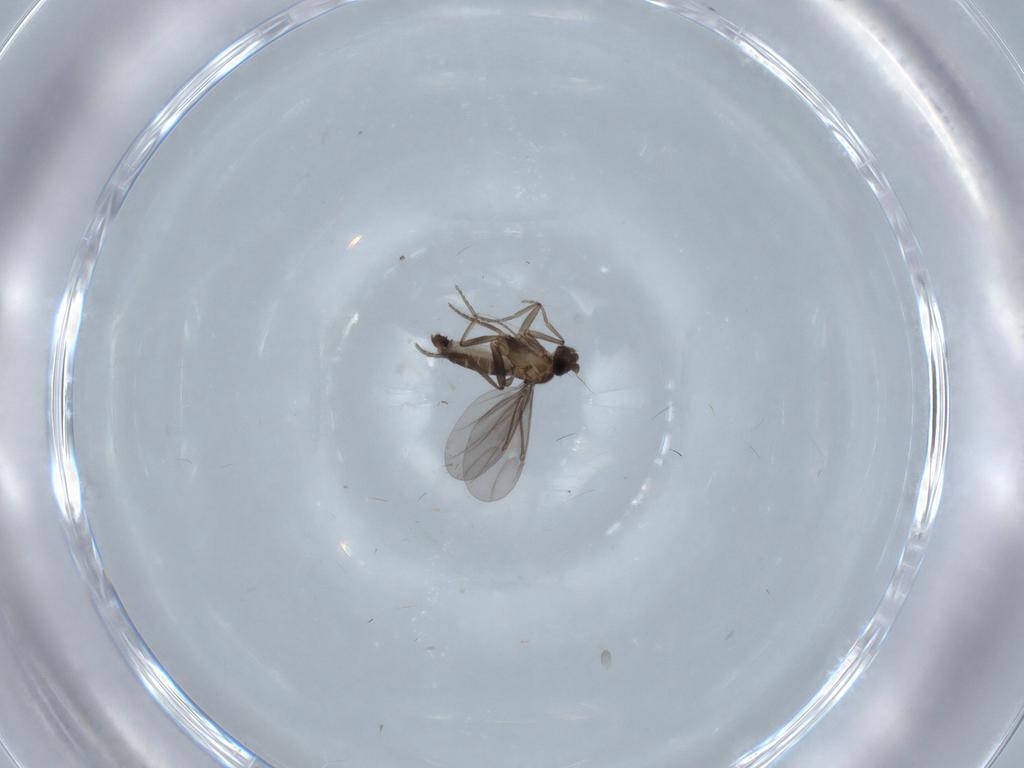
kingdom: Animalia
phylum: Arthropoda
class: Insecta
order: Diptera
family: Cecidomyiidae
